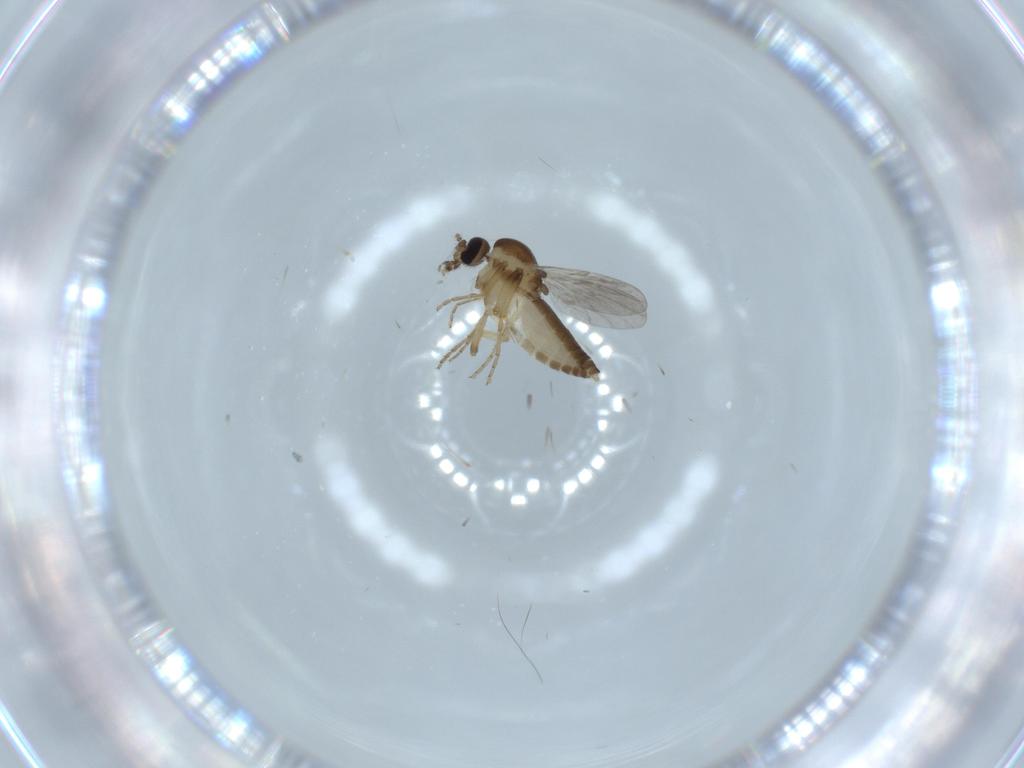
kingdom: Animalia
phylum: Arthropoda
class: Insecta
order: Diptera
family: Ceratopogonidae
